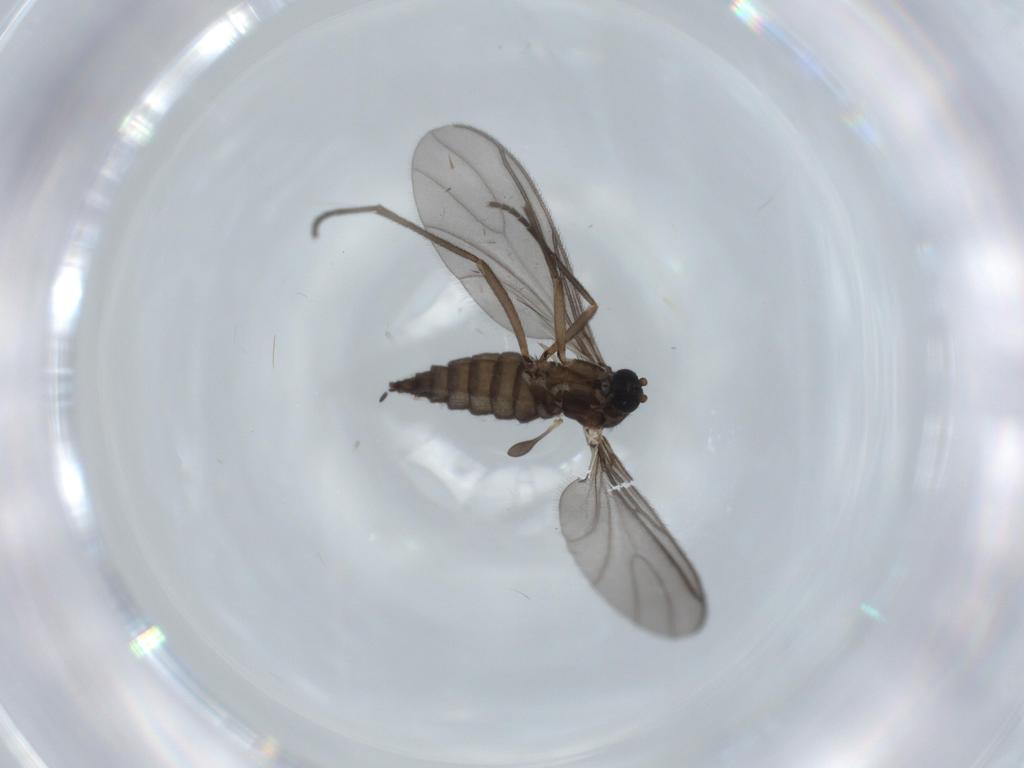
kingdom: Animalia
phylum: Arthropoda
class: Insecta
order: Diptera
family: Sciaridae
